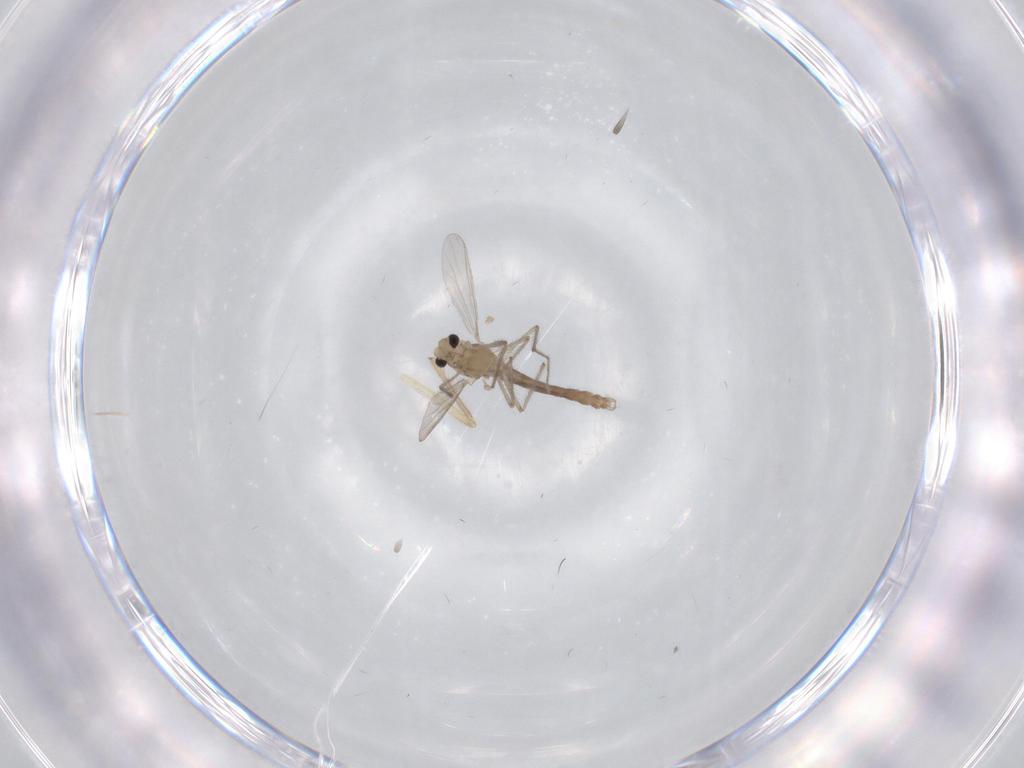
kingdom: Animalia
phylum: Arthropoda
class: Insecta
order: Diptera
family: Chironomidae
